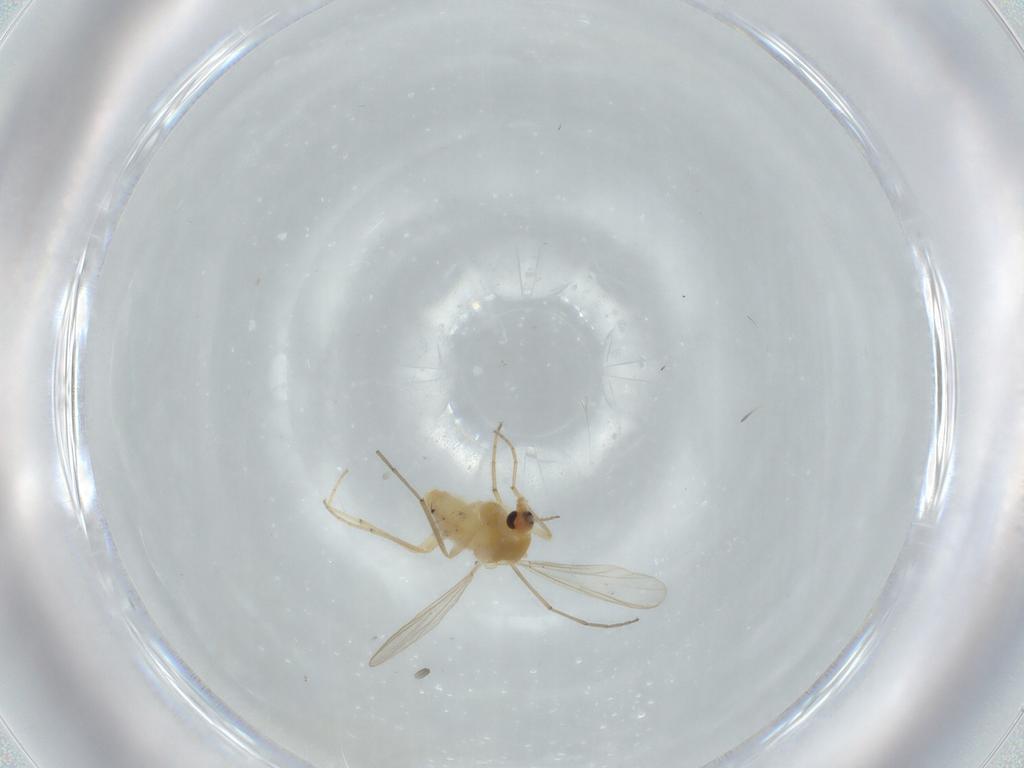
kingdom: Animalia
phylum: Arthropoda
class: Insecta
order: Diptera
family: Chironomidae
